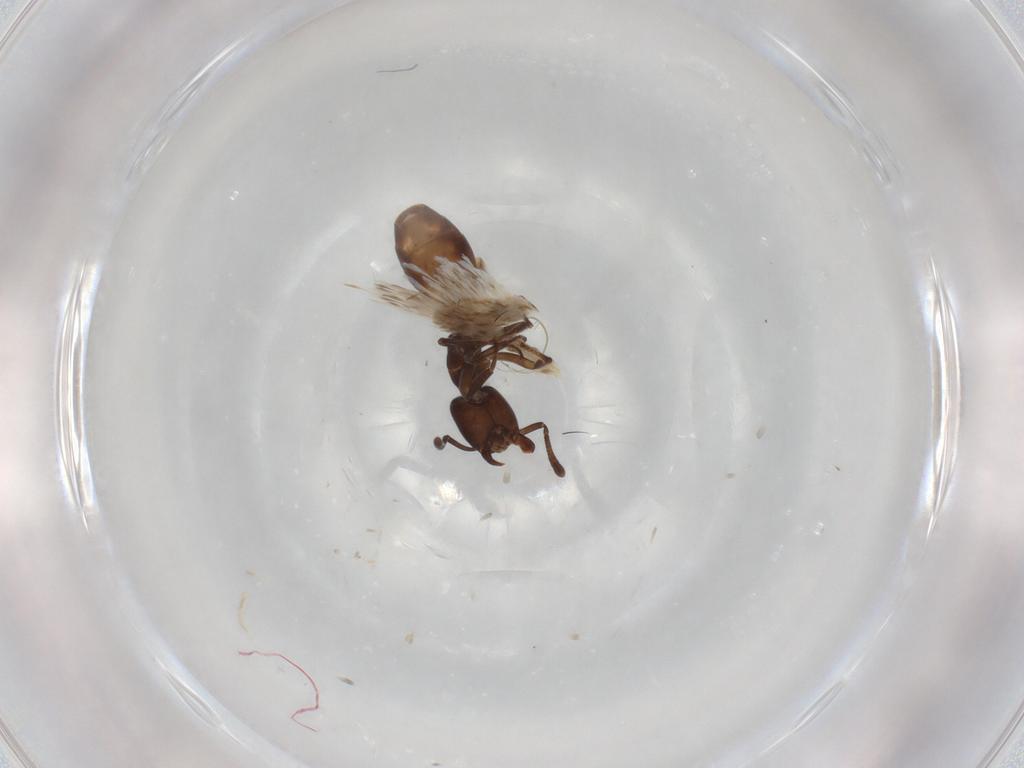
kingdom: Animalia
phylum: Arthropoda
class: Insecta
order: Hymenoptera
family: Formicidae
